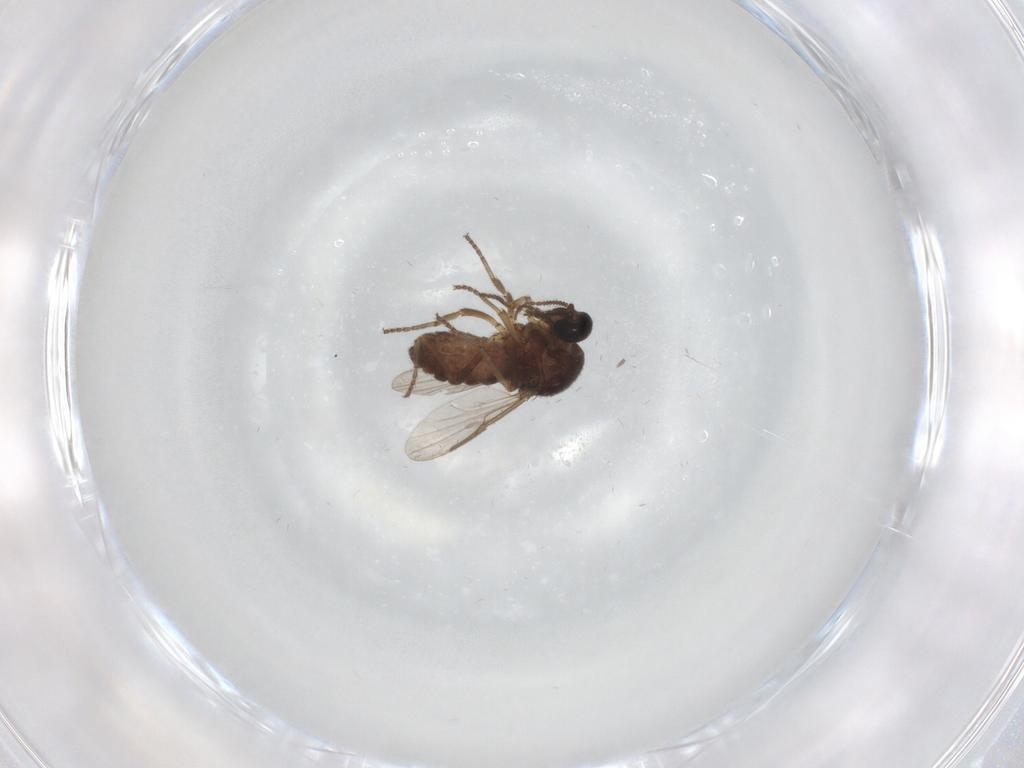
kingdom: Animalia
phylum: Arthropoda
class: Insecta
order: Diptera
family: Ceratopogonidae
